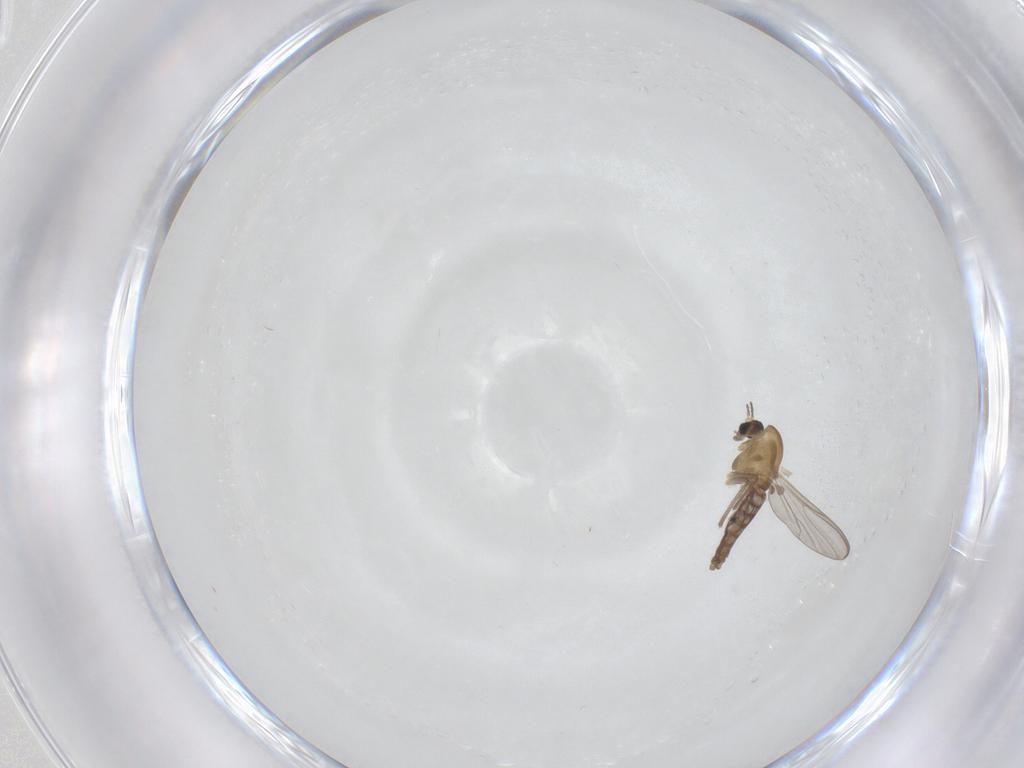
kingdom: Animalia
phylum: Arthropoda
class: Insecta
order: Diptera
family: Chironomidae
